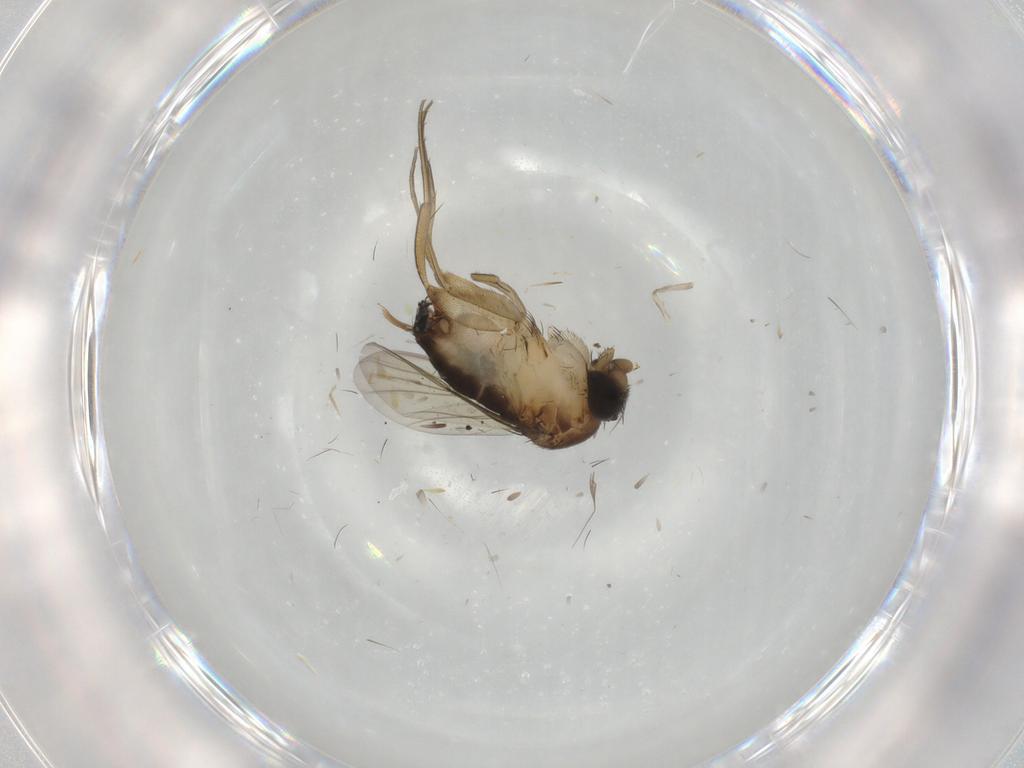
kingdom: Animalia
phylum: Arthropoda
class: Insecta
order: Diptera
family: Phoridae
